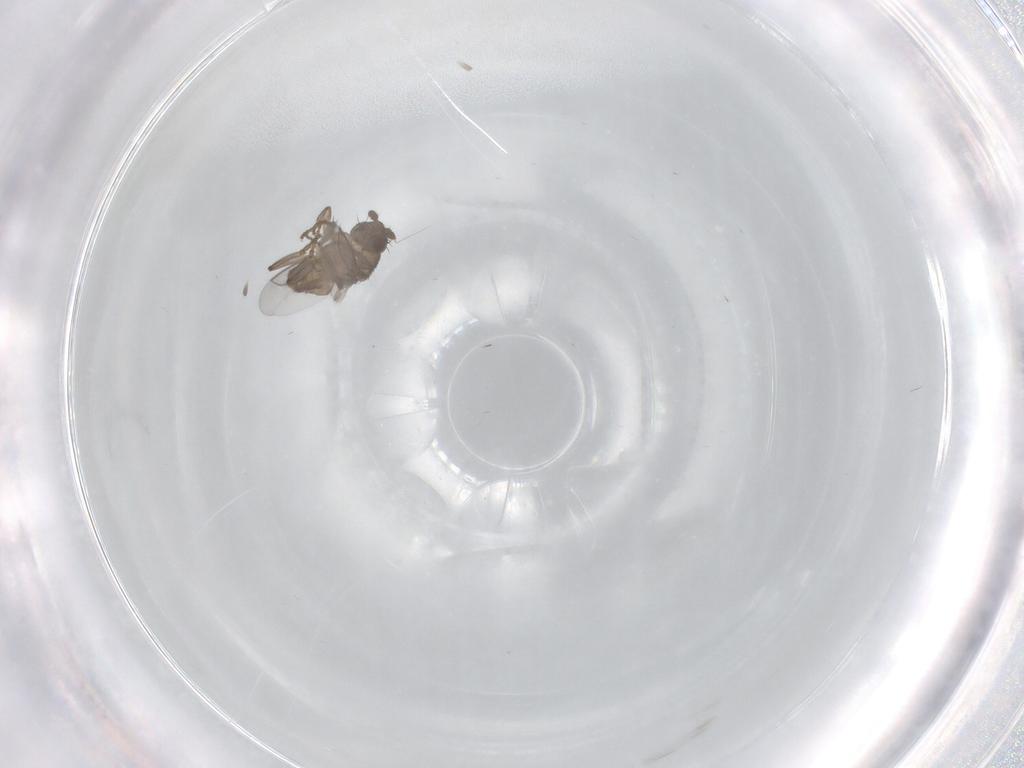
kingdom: Animalia
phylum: Arthropoda
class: Insecta
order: Diptera
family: Sphaeroceridae
